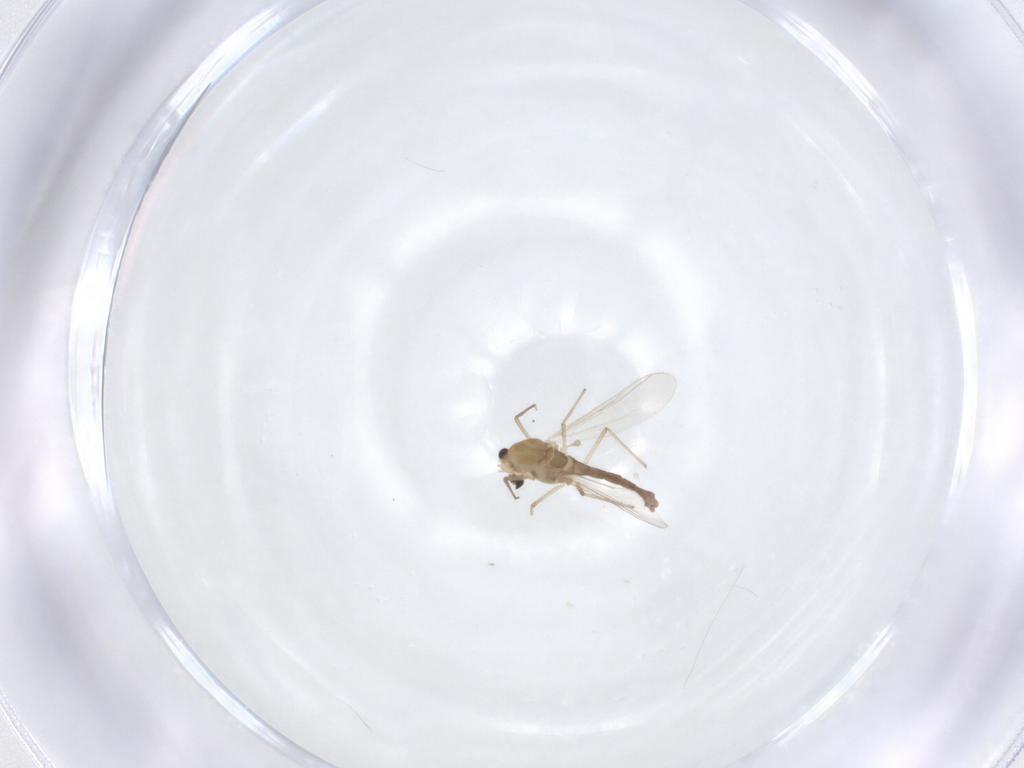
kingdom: Animalia
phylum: Arthropoda
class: Insecta
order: Diptera
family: Chironomidae
